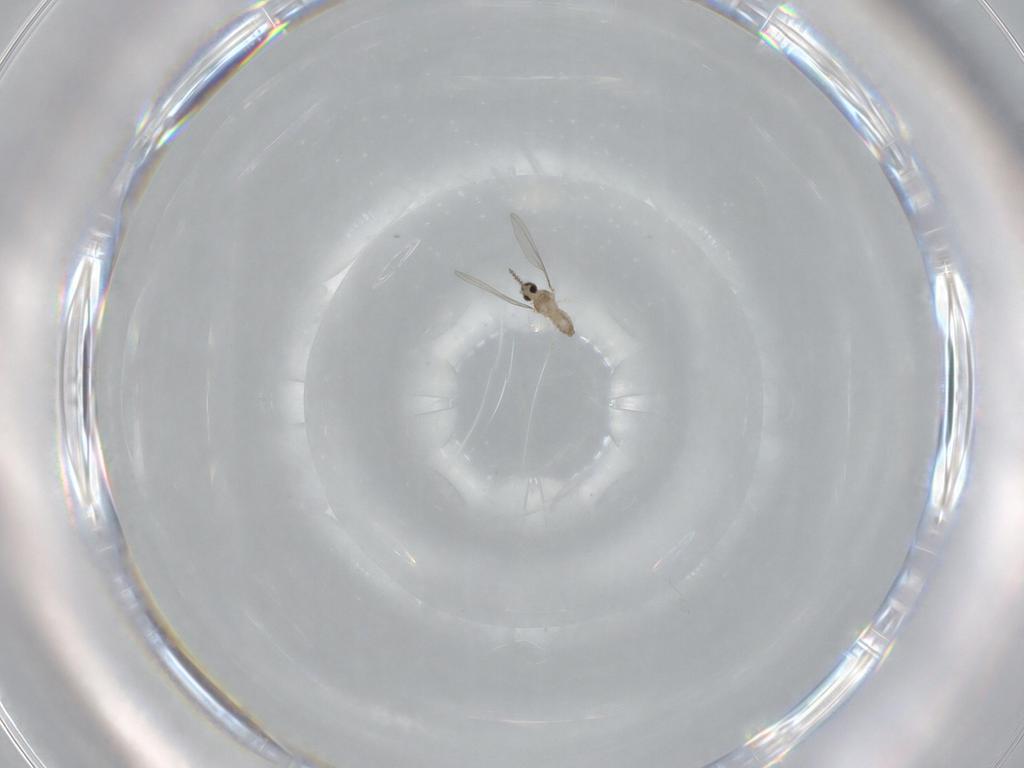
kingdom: Animalia
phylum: Arthropoda
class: Insecta
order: Diptera
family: Cecidomyiidae
